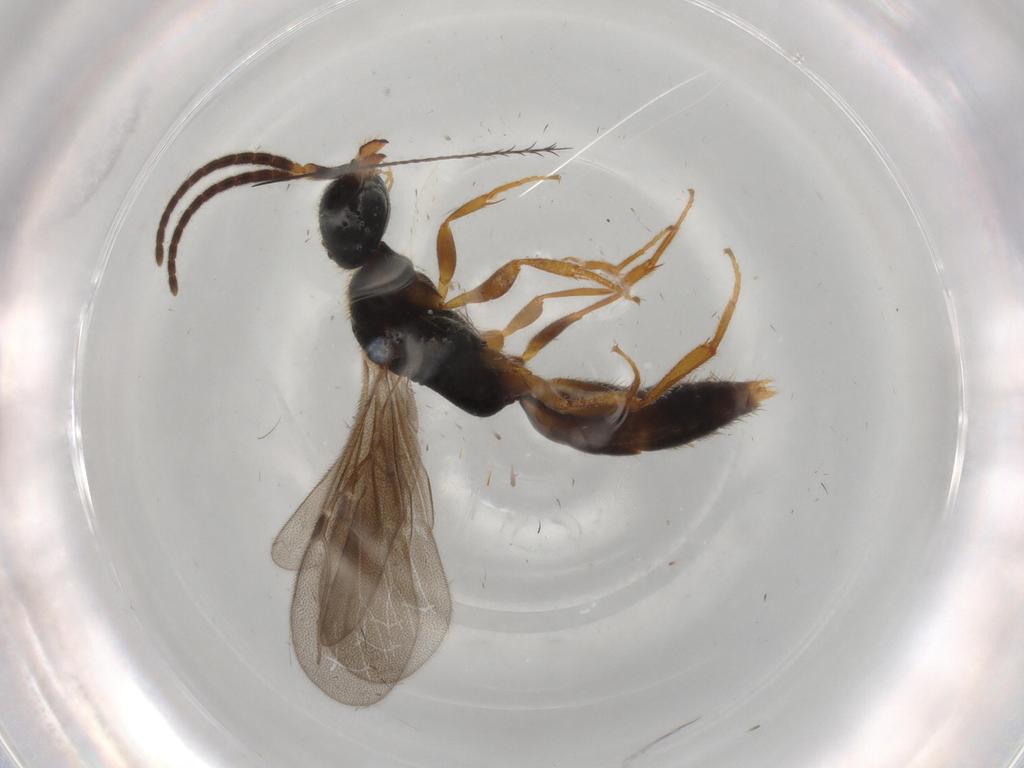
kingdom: Animalia
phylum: Arthropoda
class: Insecta
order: Hymenoptera
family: Bethylidae
